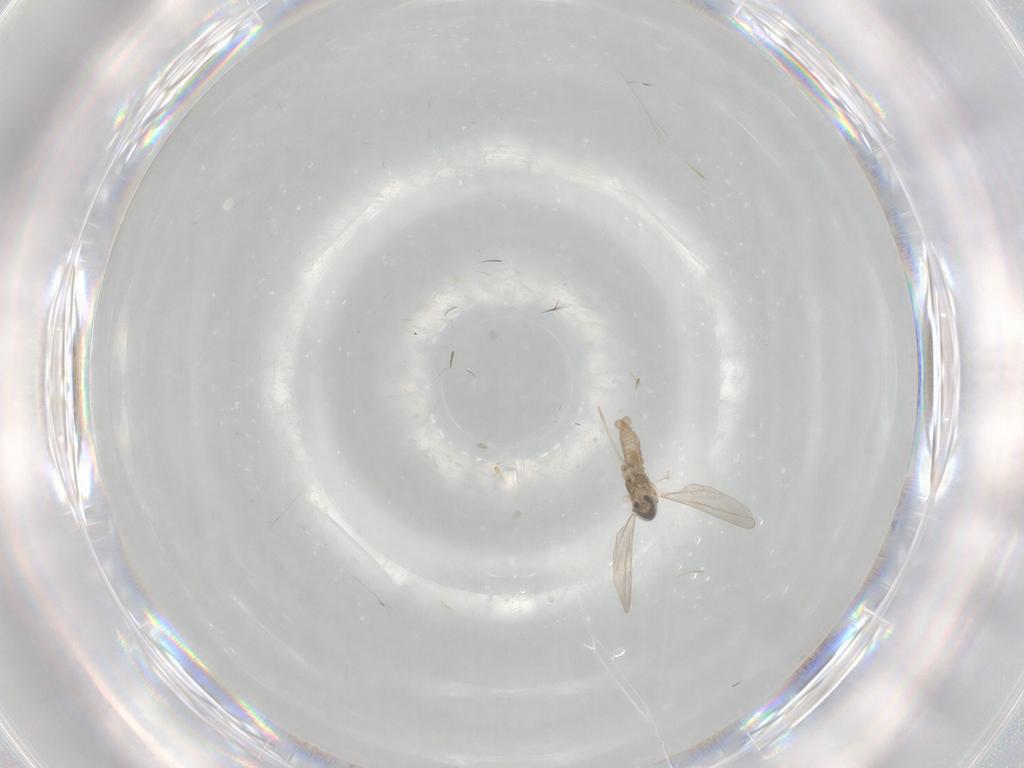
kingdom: Animalia
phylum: Arthropoda
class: Insecta
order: Diptera
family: Cecidomyiidae
